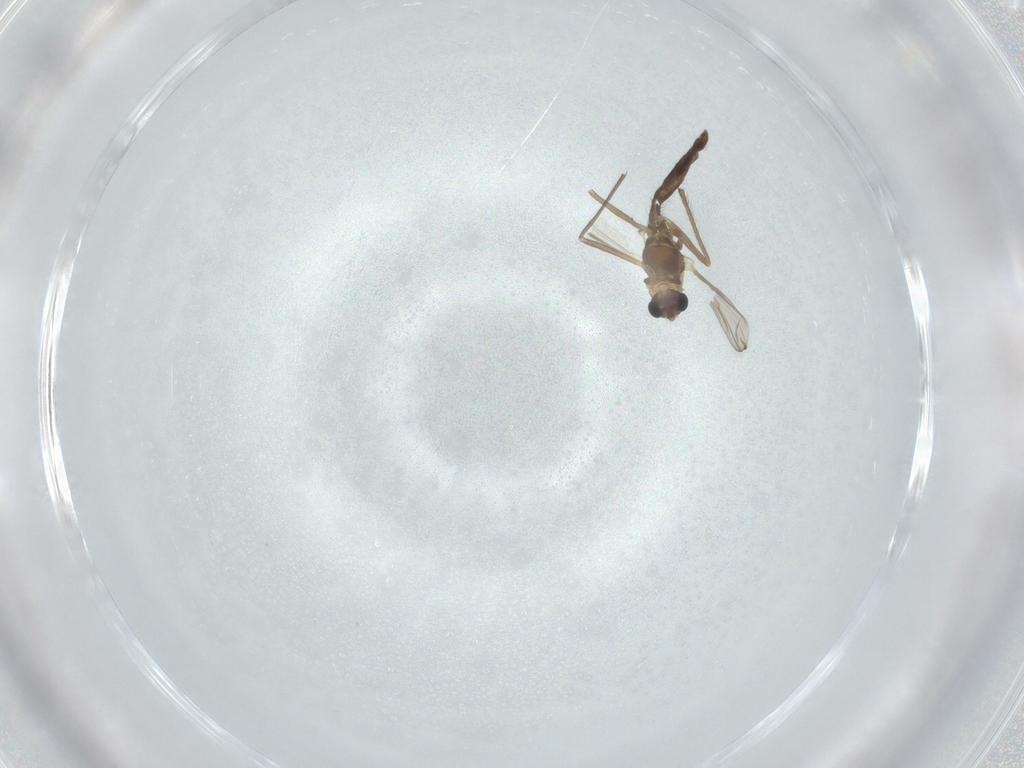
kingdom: Animalia
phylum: Arthropoda
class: Insecta
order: Diptera
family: Chironomidae
